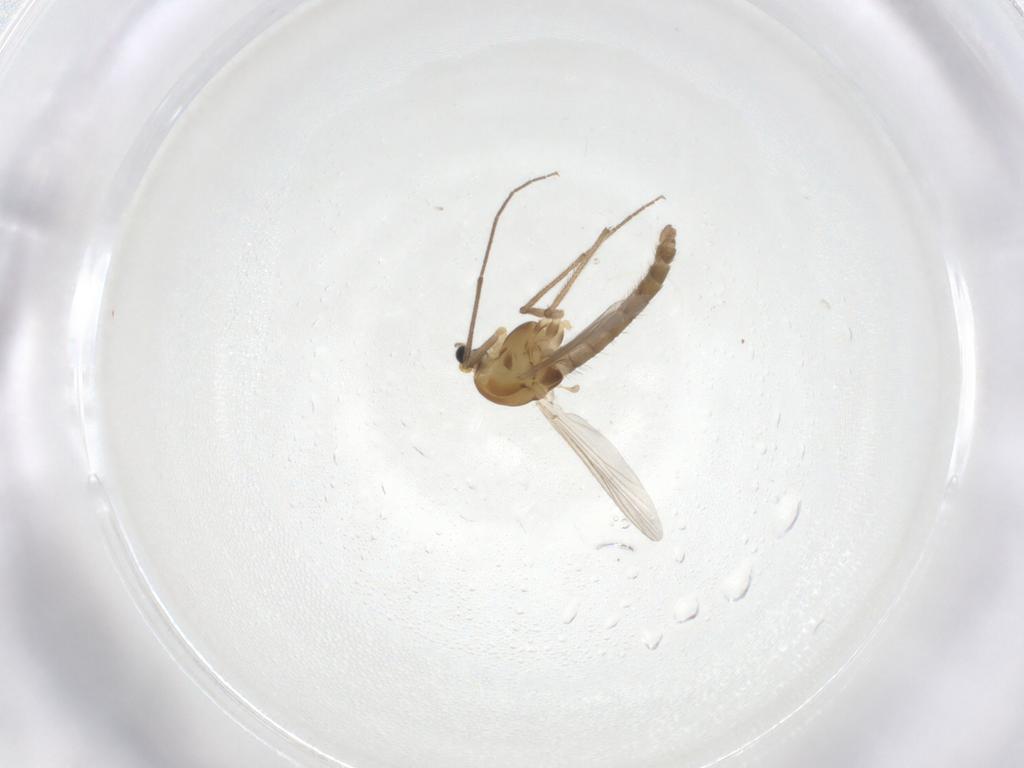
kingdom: Animalia
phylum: Arthropoda
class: Insecta
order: Diptera
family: Chironomidae
